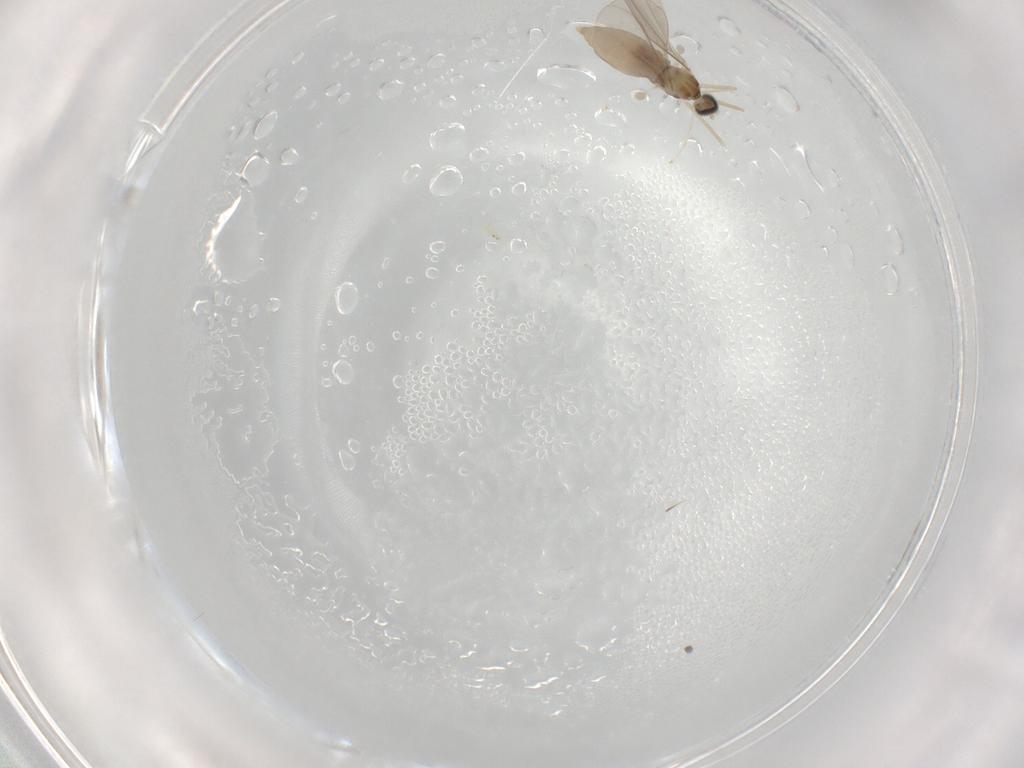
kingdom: Animalia
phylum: Arthropoda
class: Insecta
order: Diptera
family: Cecidomyiidae
